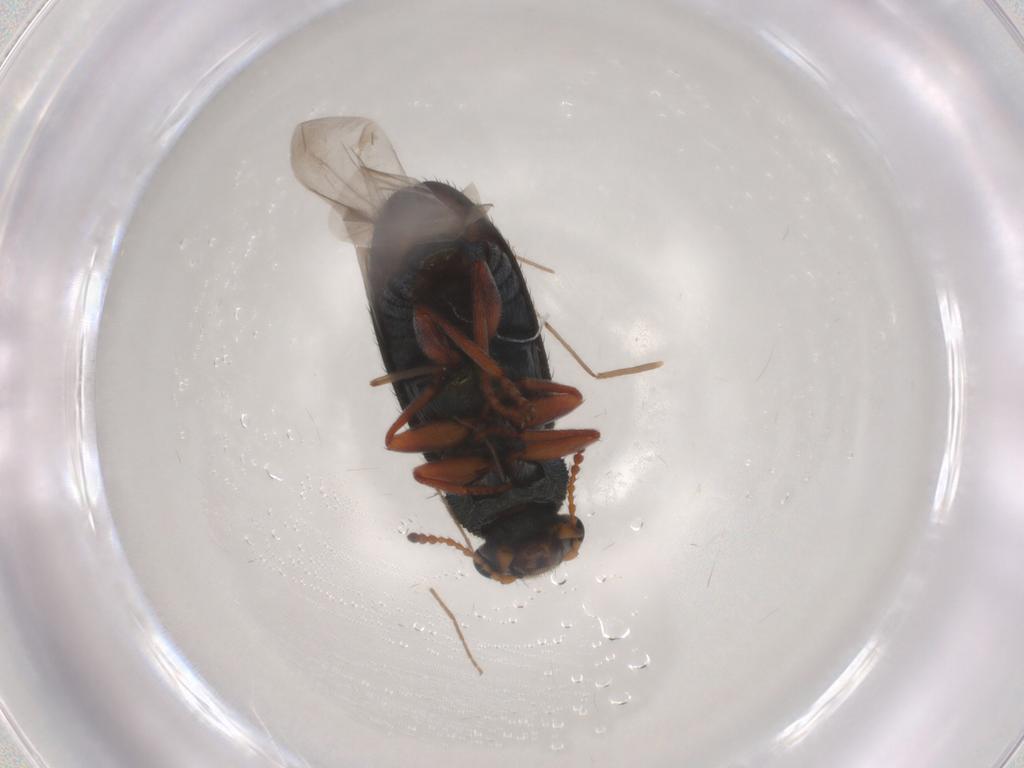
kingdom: Animalia
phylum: Arthropoda
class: Insecta
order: Coleoptera
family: Melyridae
